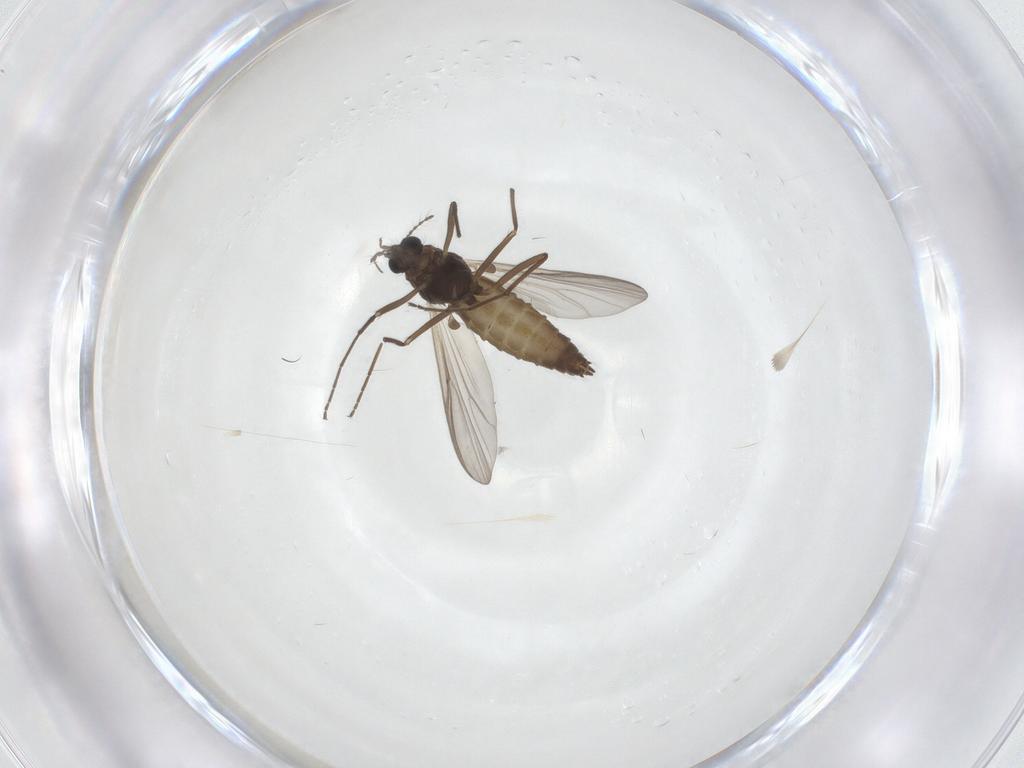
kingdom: Animalia
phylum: Arthropoda
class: Insecta
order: Diptera
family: Chironomidae
